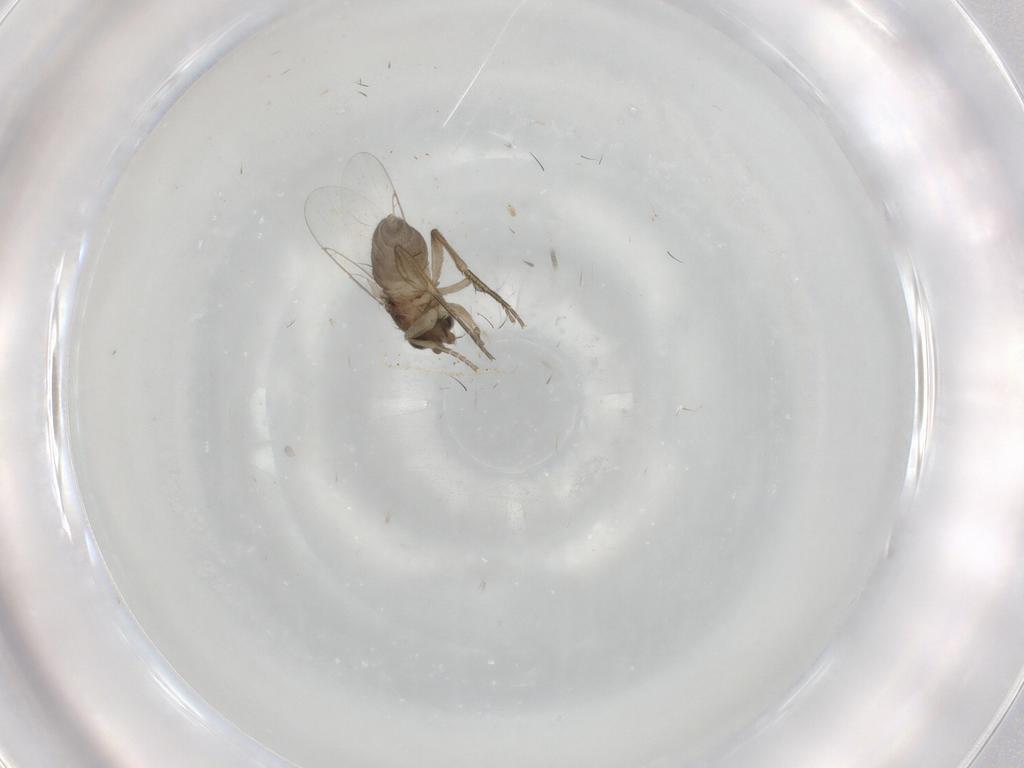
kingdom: Animalia
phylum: Arthropoda
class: Insecta
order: Diptera
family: Phoridae
